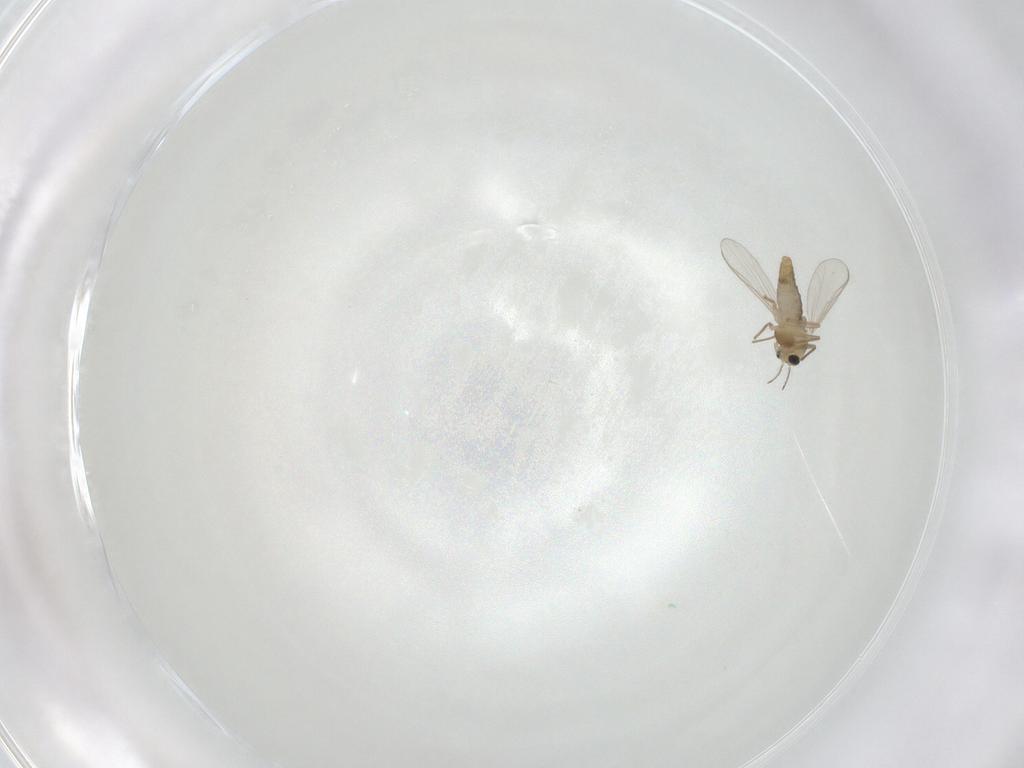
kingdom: Animalia
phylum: Arthropoda
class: Insecta
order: Diptera
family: Chironomidae
